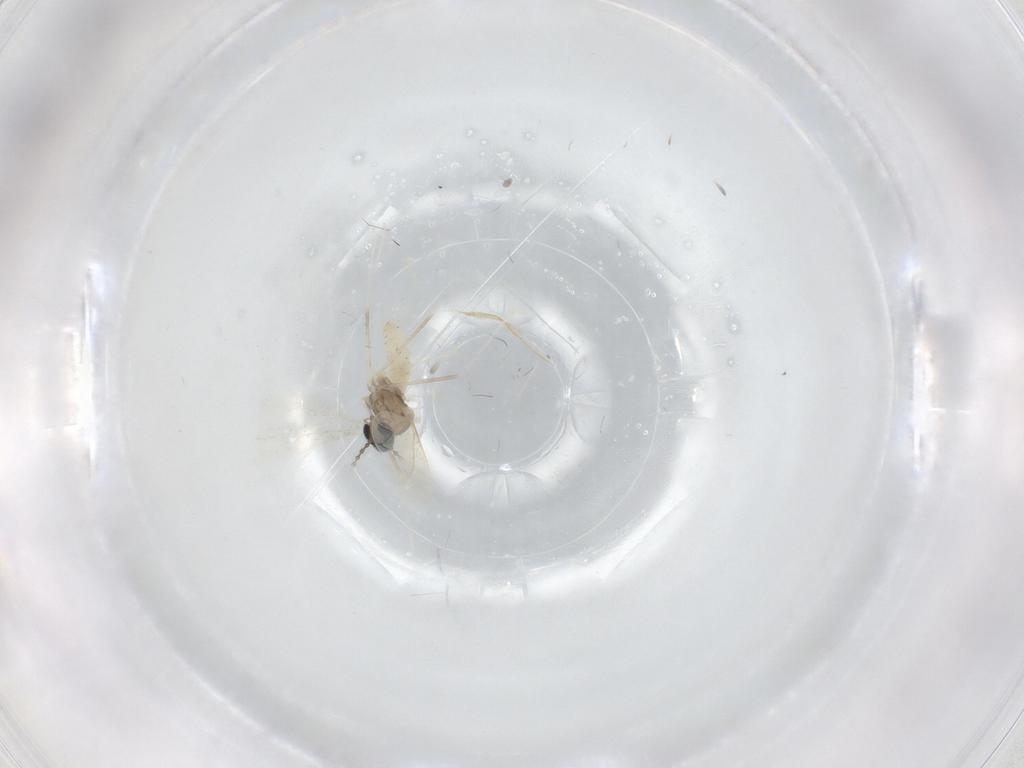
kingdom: Animalia
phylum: Arthropoda
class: Insecta
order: Diptera
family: Cecidomyiidae
